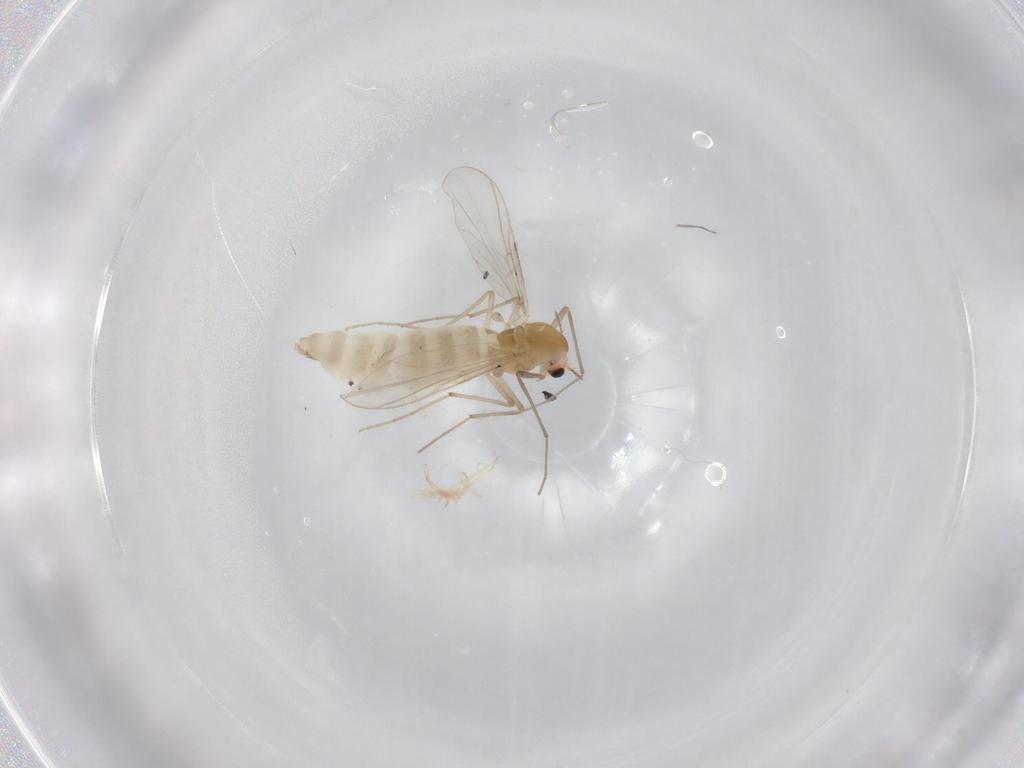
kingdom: Animalia
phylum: Arthropoda
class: Insecta
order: Diptera
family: Chironomidae
